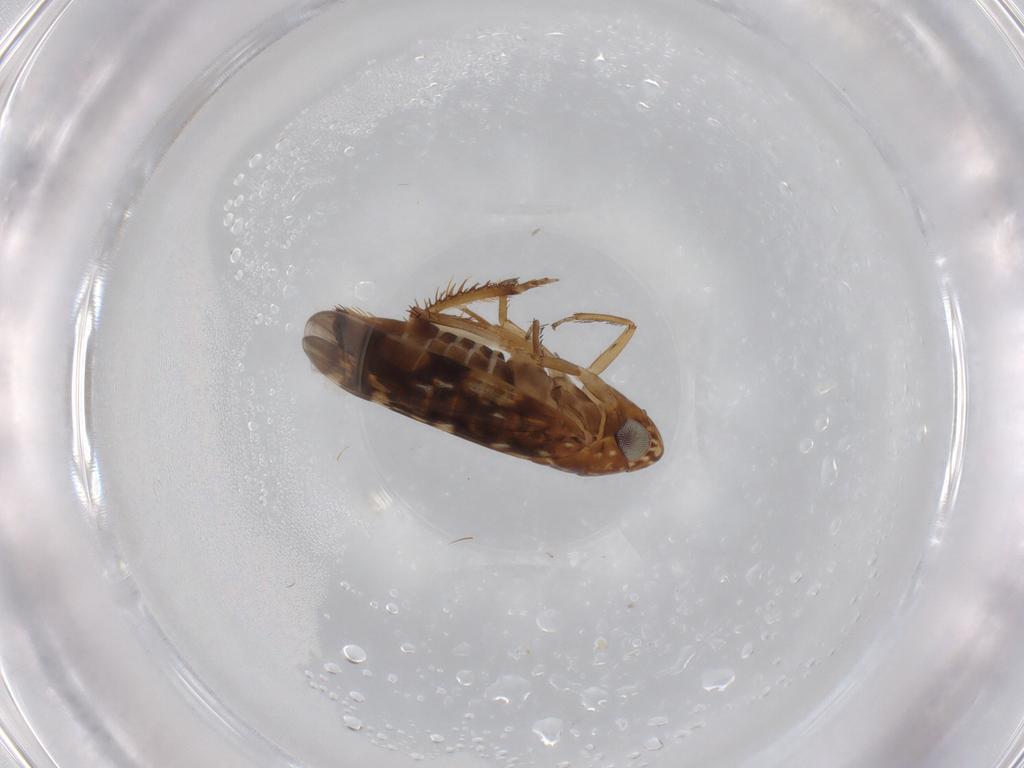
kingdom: Animalia
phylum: Arthropoda
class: Insecta
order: Hemiptera
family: Cicadellidae
